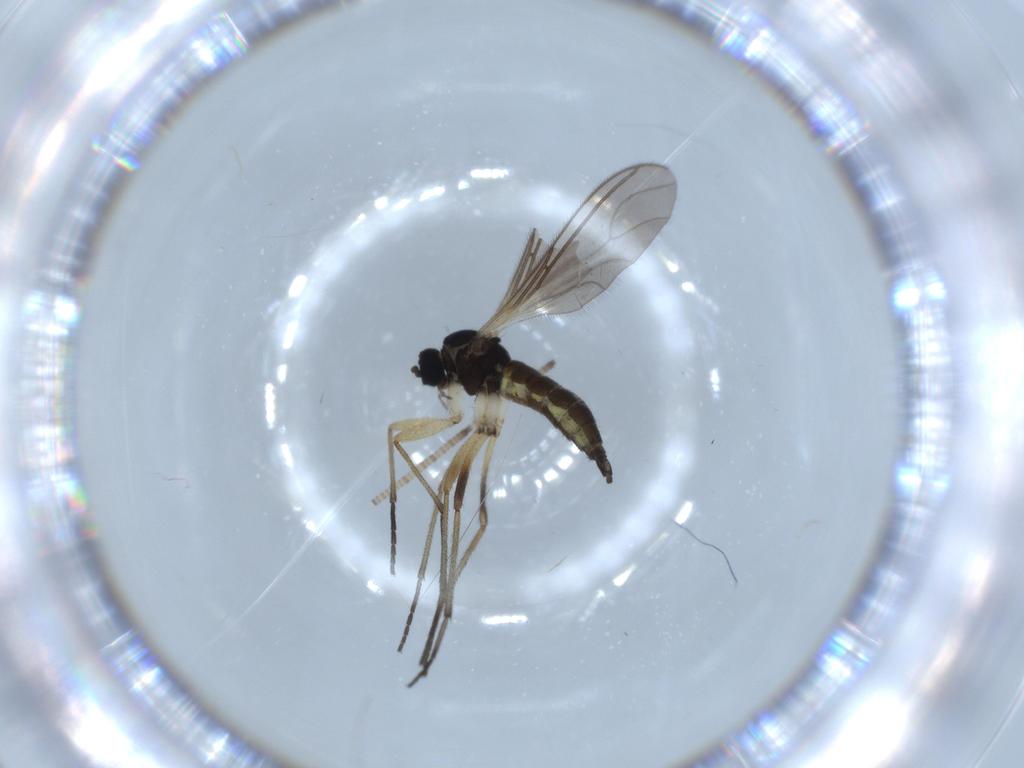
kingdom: Animalia
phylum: Arthropoda
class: Insecta
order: Diptera
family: Sciaridae
